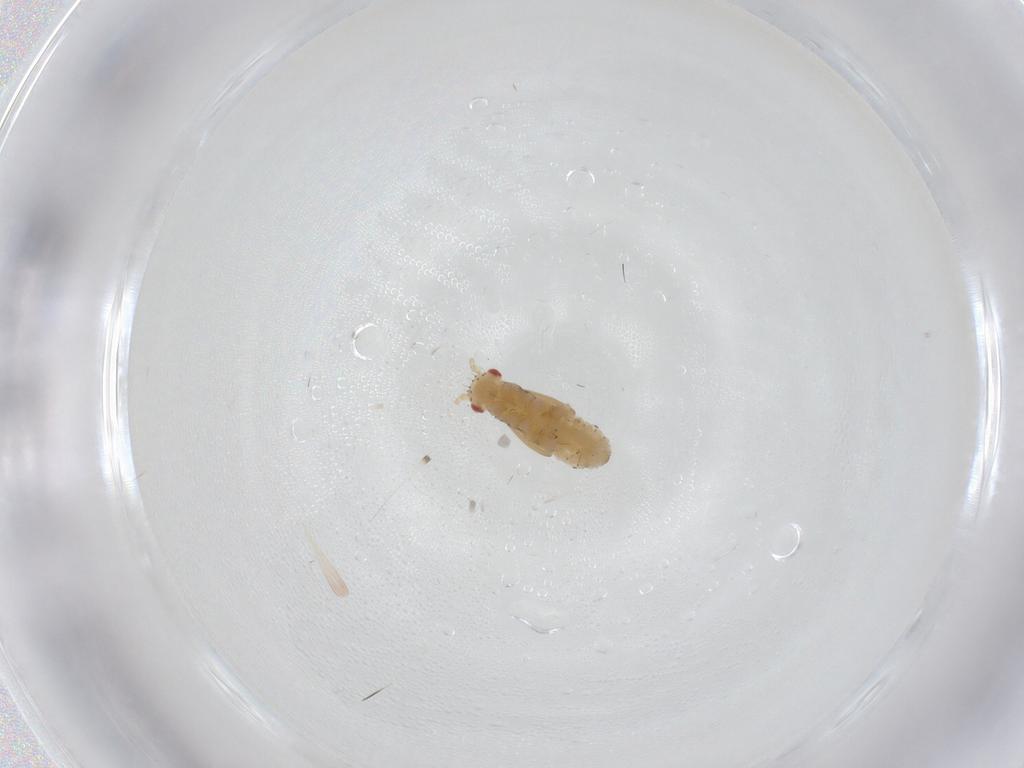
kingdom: Animalia
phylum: Arthropoda
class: Insecta
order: Hemiptera
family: Aphididae
